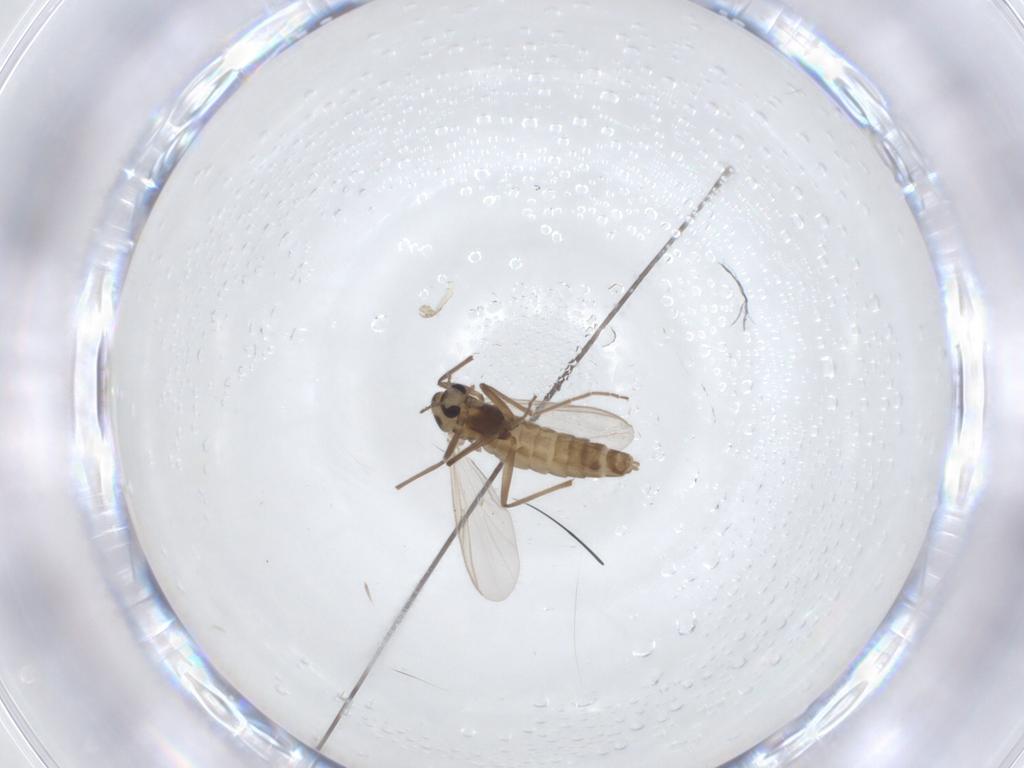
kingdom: Animalia
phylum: Arthropoda
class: Insecta
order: Diptera
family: Chironomidae
